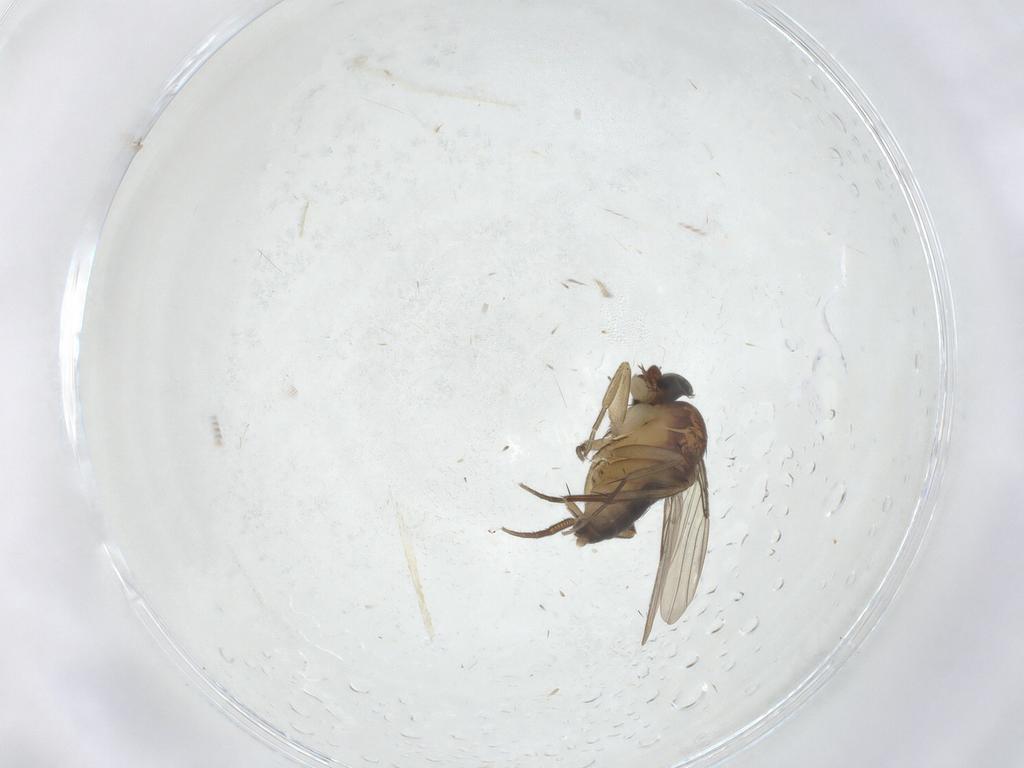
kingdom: Animalia
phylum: Arthropoda
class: Insecta
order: Diptera
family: Phoridae
